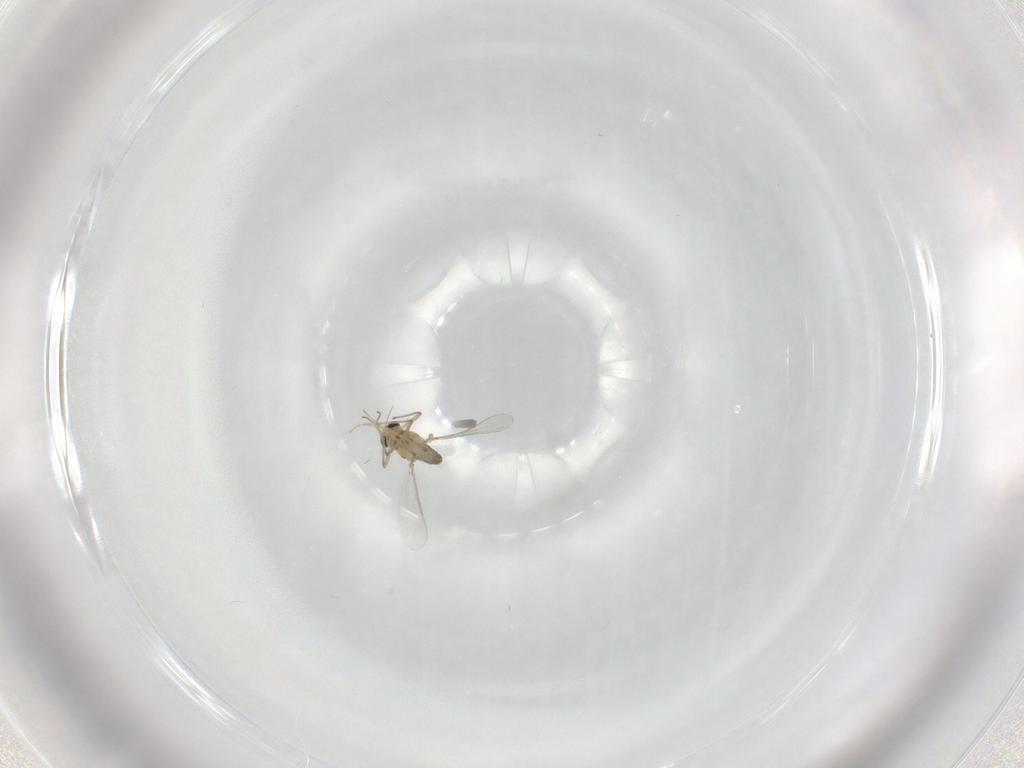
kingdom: Animalia
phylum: Arthropoda
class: Insecta
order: Diptera
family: Chironomidae
